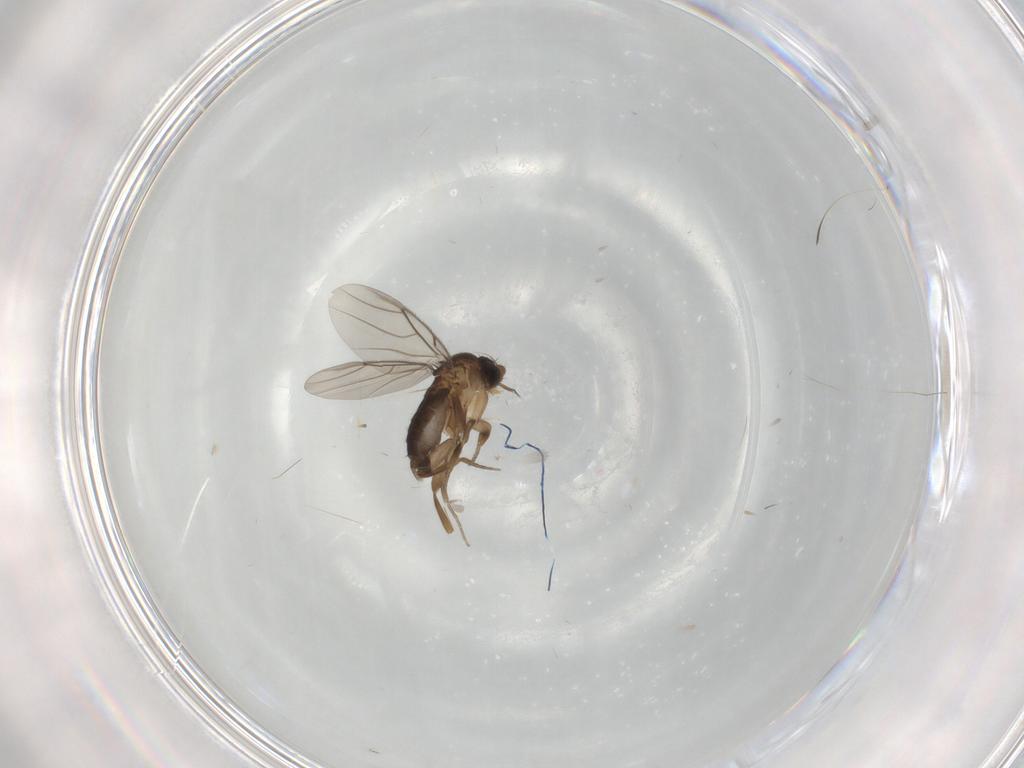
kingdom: Animalia
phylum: Arthropoda
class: Insecta
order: Diptera
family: Phoridae
